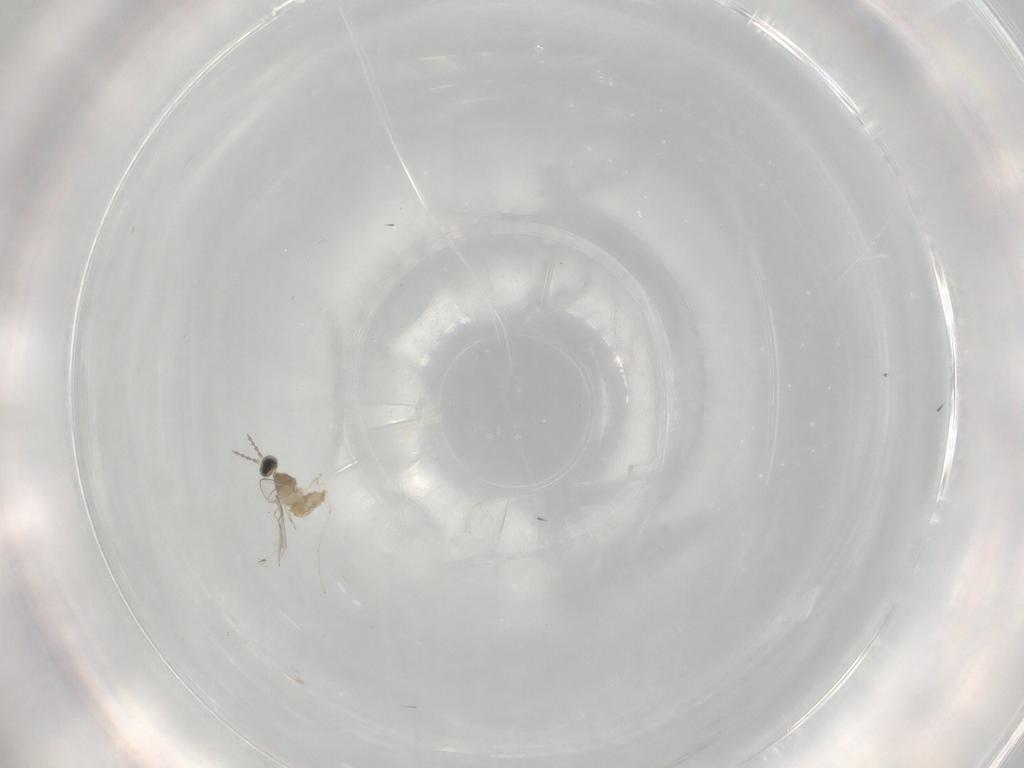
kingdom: Animalia
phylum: Arthropoda
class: Insecta
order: Diptera
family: Cecidomyiidae
